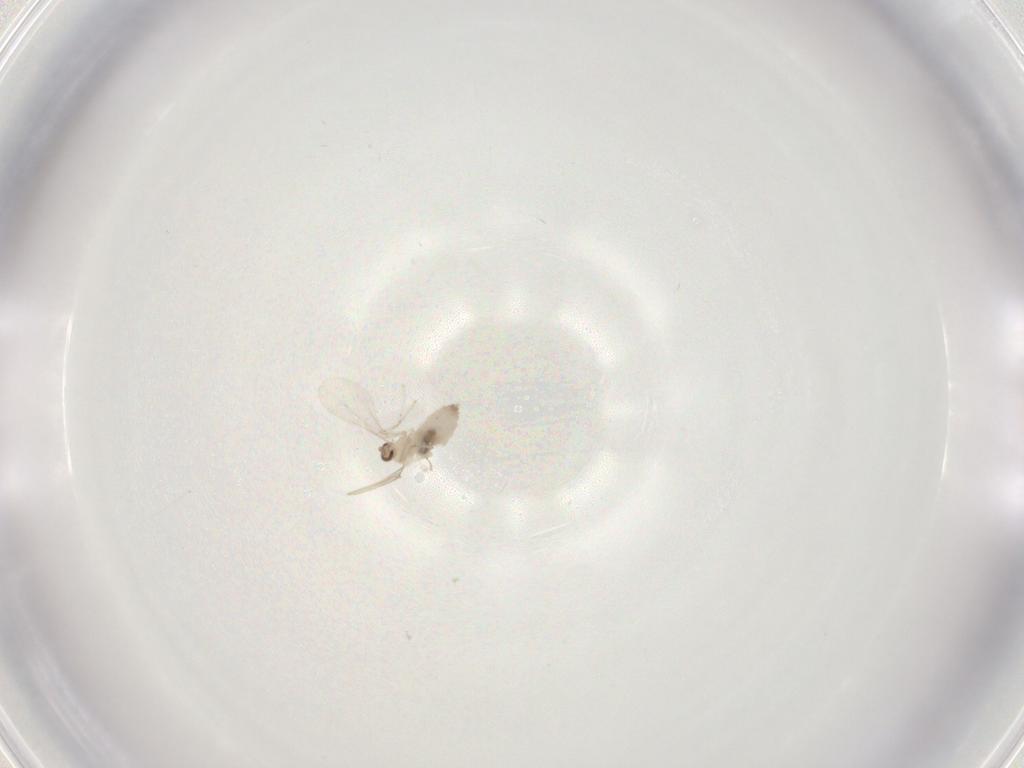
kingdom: Animalia
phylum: Arthropoda
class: Insecta
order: Diptera
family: Cecidomyiidae
